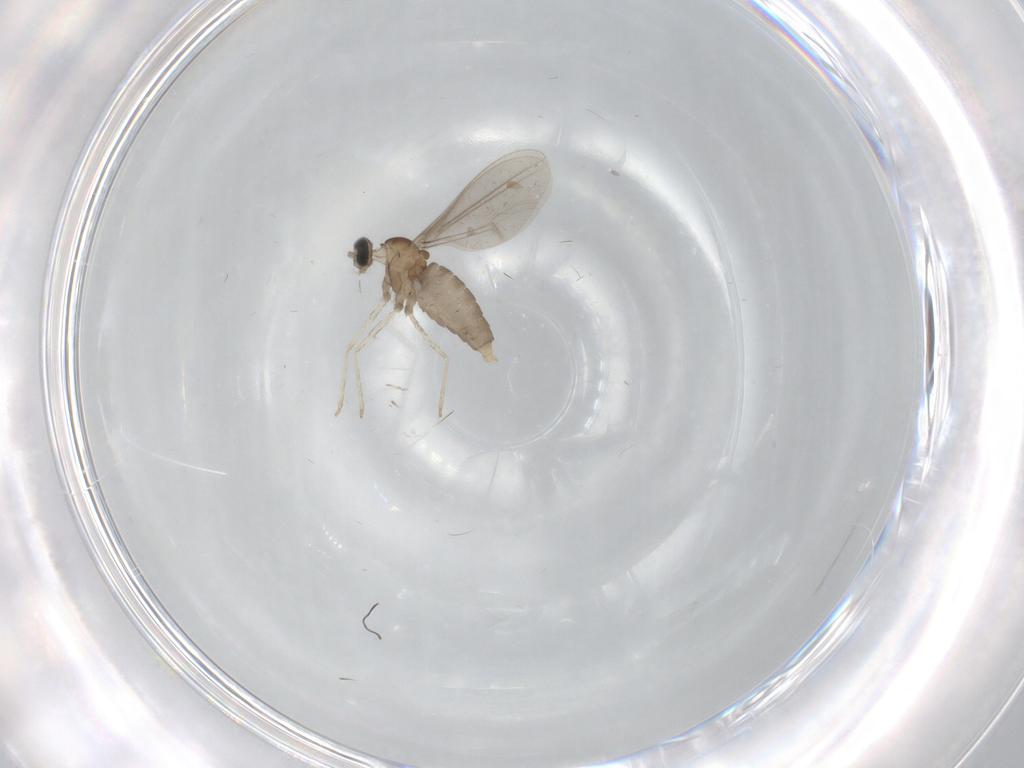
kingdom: Animalia
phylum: Arthropoda
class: Insecta
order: Diptera
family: Cecidomyiidae
